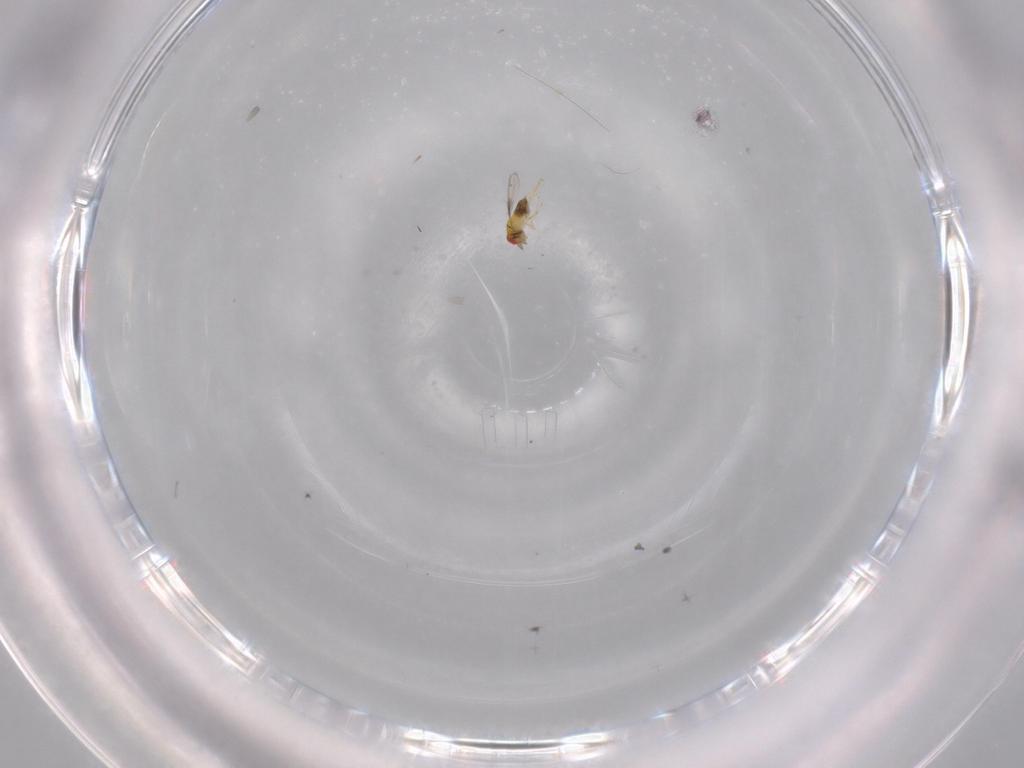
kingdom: Animalia
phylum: Arthropoda
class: Insecta
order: Hymenoptera
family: Trichogrammatidae
